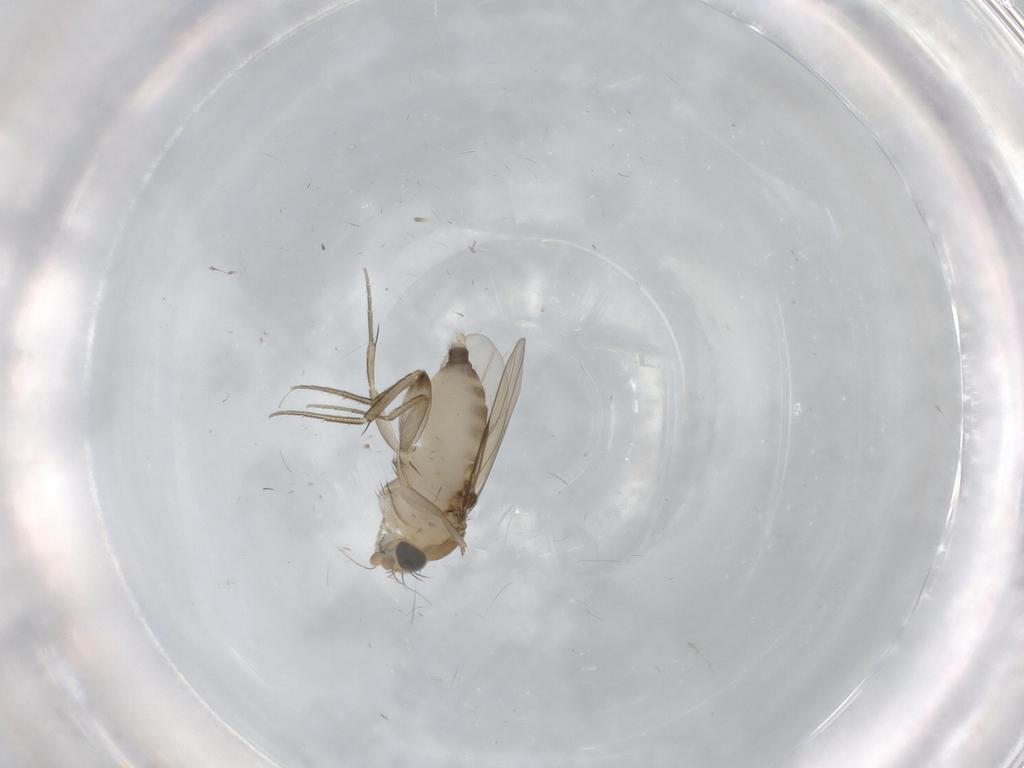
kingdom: Animalia
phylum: Arthropoda
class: Insecta
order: Diptera
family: Phoridae
